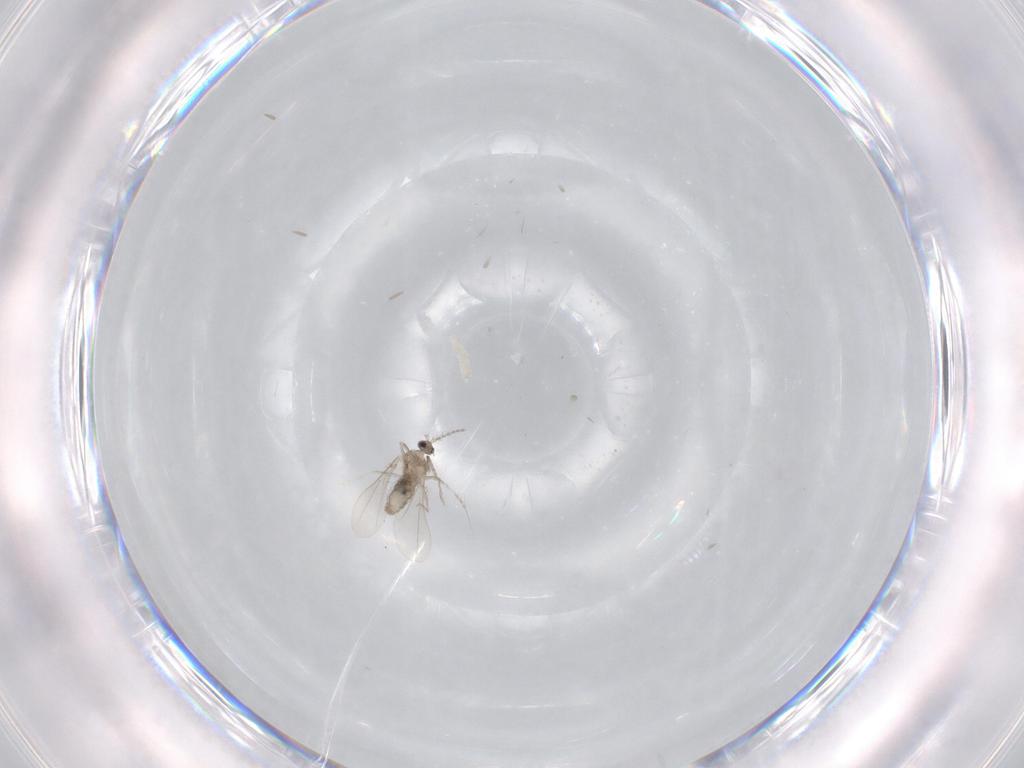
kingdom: Animalia
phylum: Arthropoda
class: Insecta
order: Diptera
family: Cecidomyiidae
